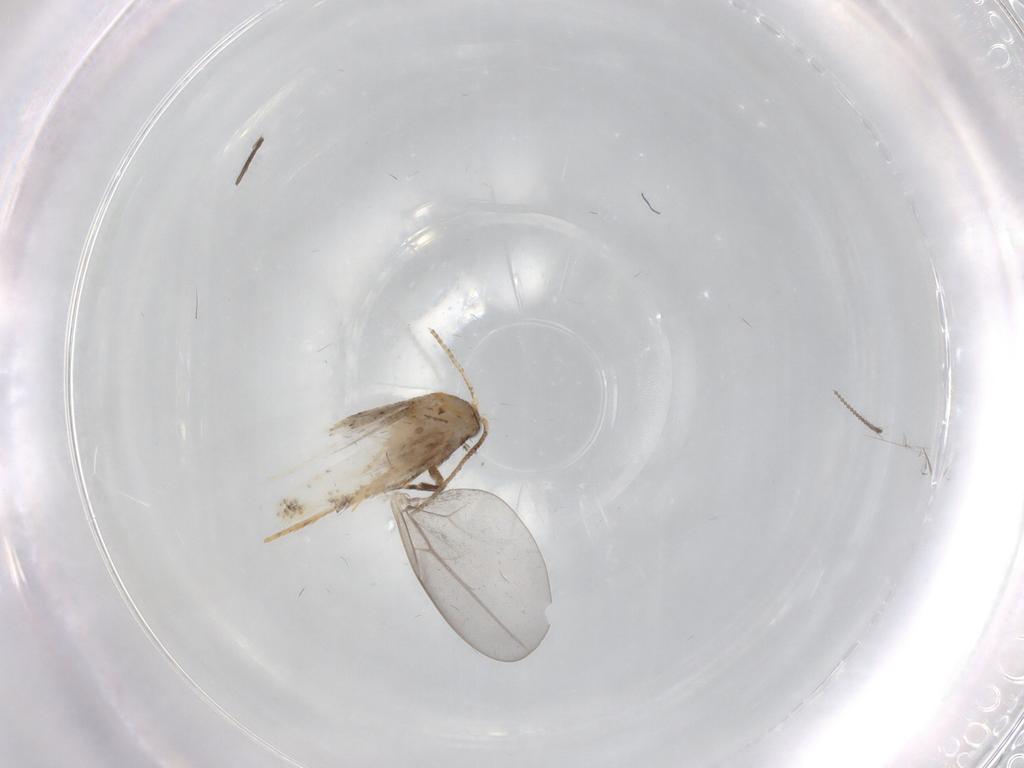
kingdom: Animalia
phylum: Arthropoda
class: Insecta
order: Lepidoptera
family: Tineidae
